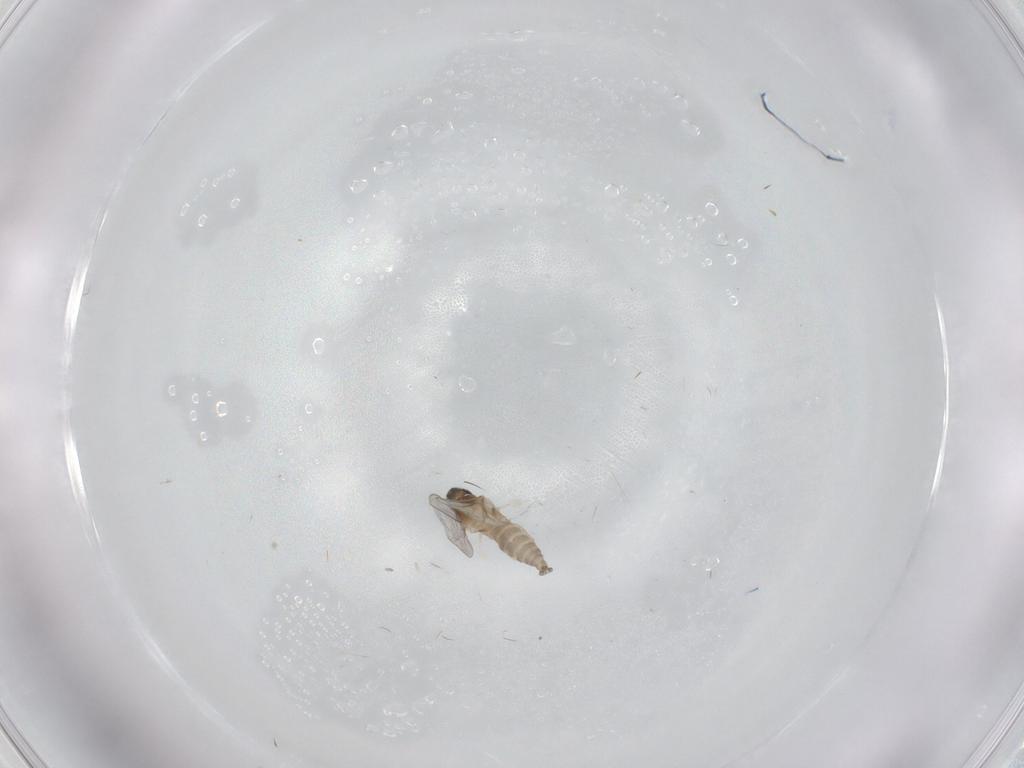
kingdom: Animalia
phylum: Arthropoda
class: Insecta
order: Diptera
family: Cecidomyiidae
